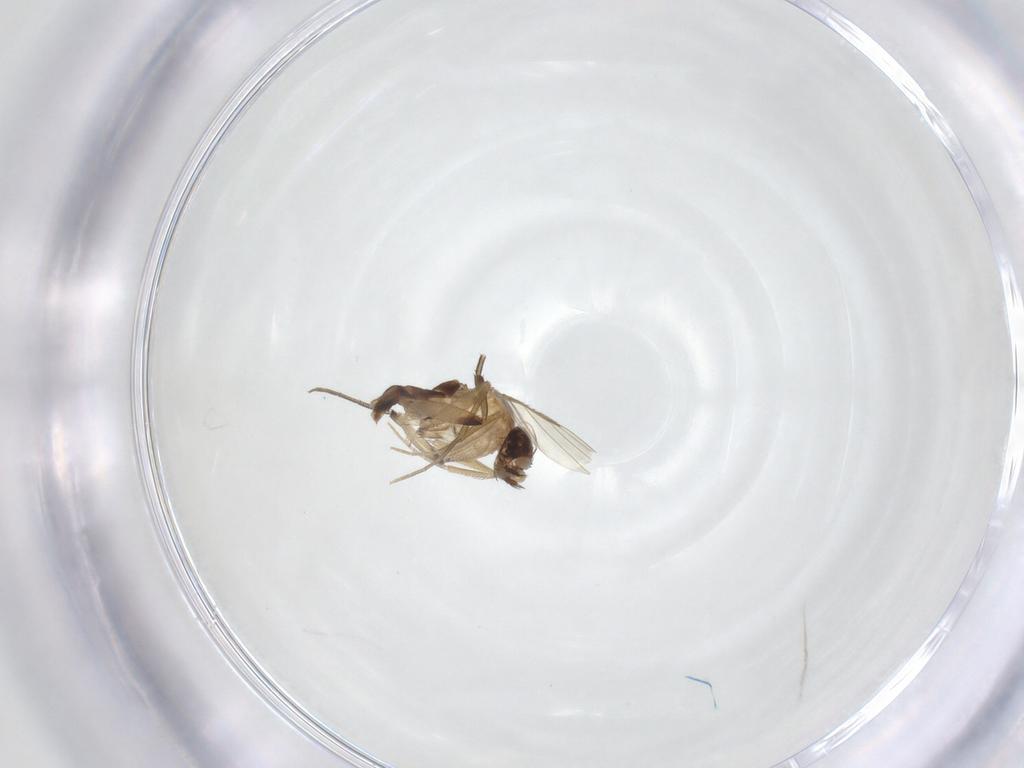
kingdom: Animalia
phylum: Arthropoda
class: Insecta
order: Diptera
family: Phoridae
